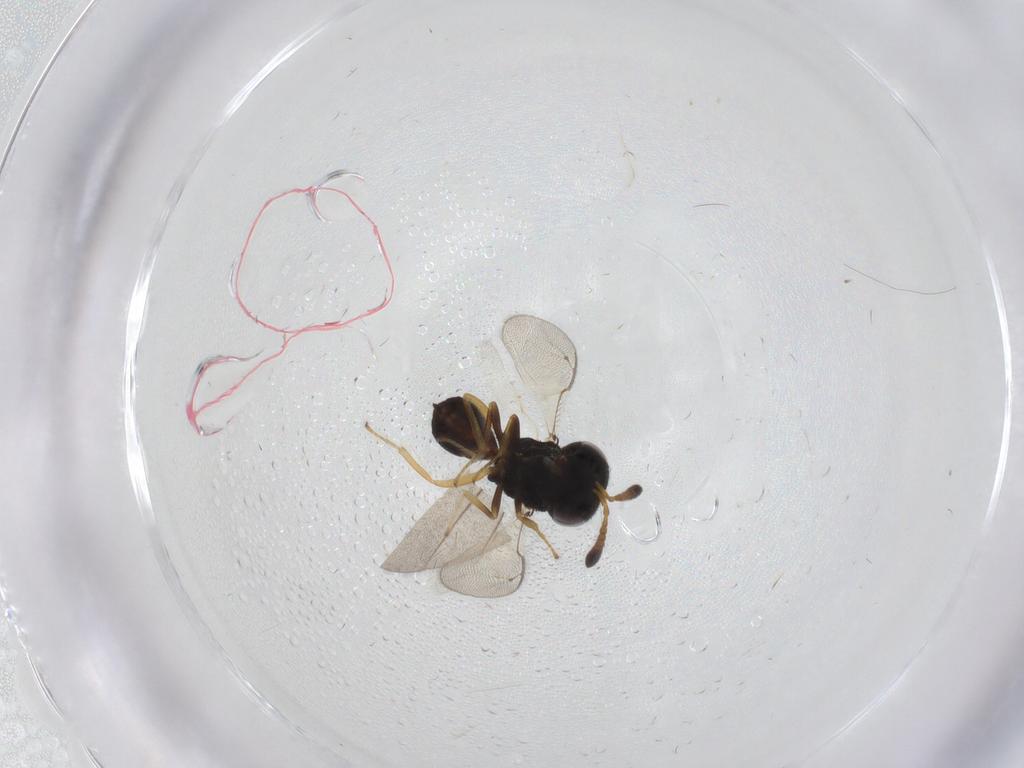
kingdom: Animalia
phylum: Arthropoda
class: Insecta
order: Hymenoptera
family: Pteromalidae
